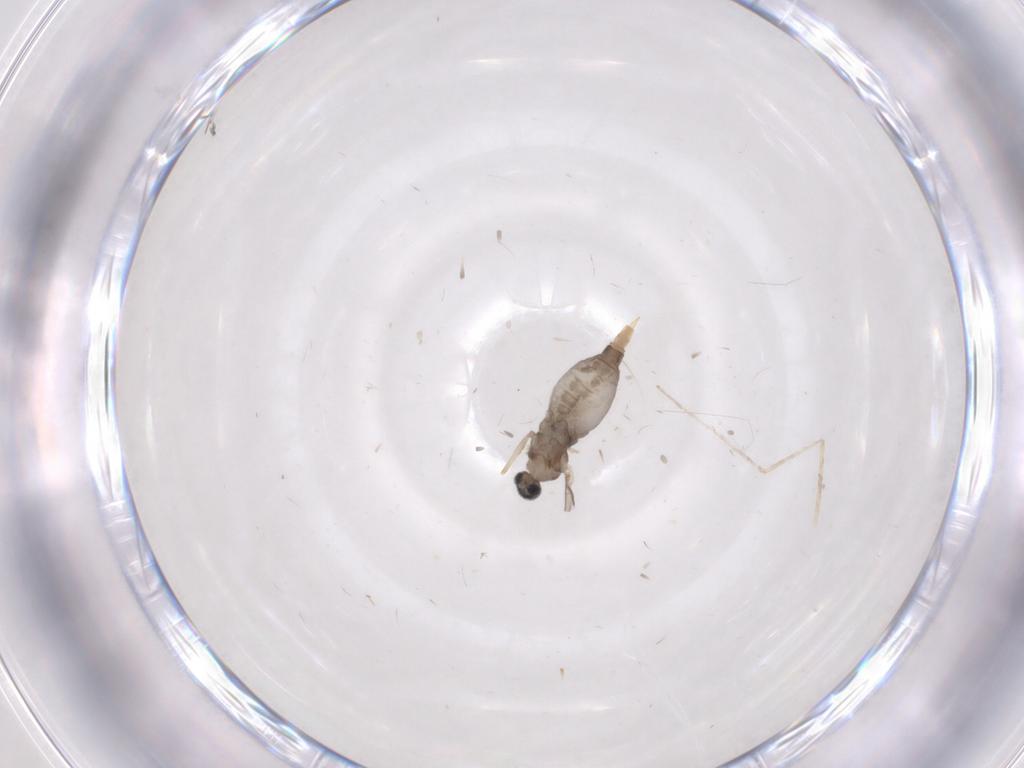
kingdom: Animalia
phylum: Arthropoda
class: Insecta
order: Diptera
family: Cecidomyiidae
